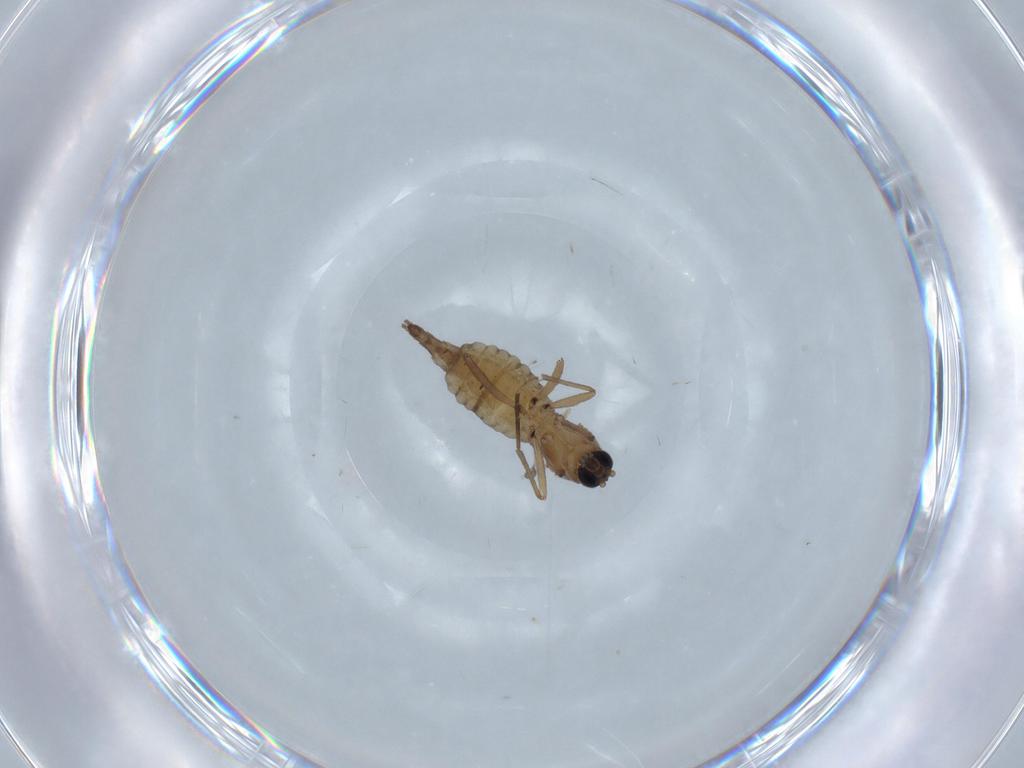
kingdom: Animalia
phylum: Arthropoda
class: Insecta
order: Diptera
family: Sciaridae
